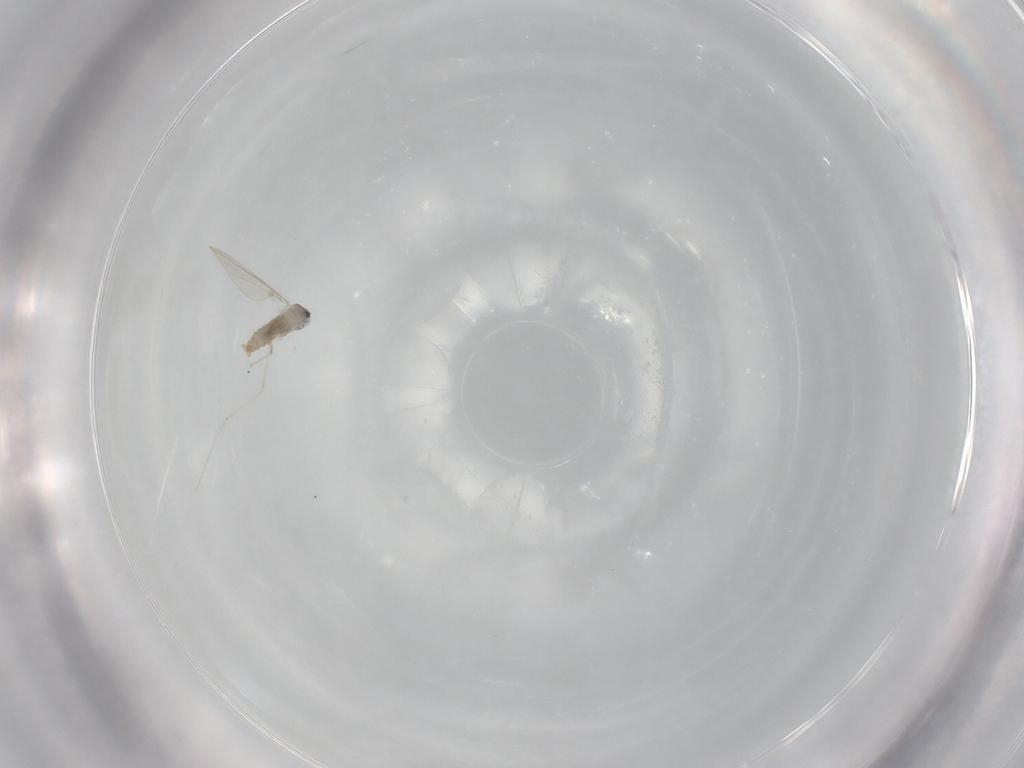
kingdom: Animalia
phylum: Arthropoda
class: Insecta
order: Diptera
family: Cecidomyiidae
